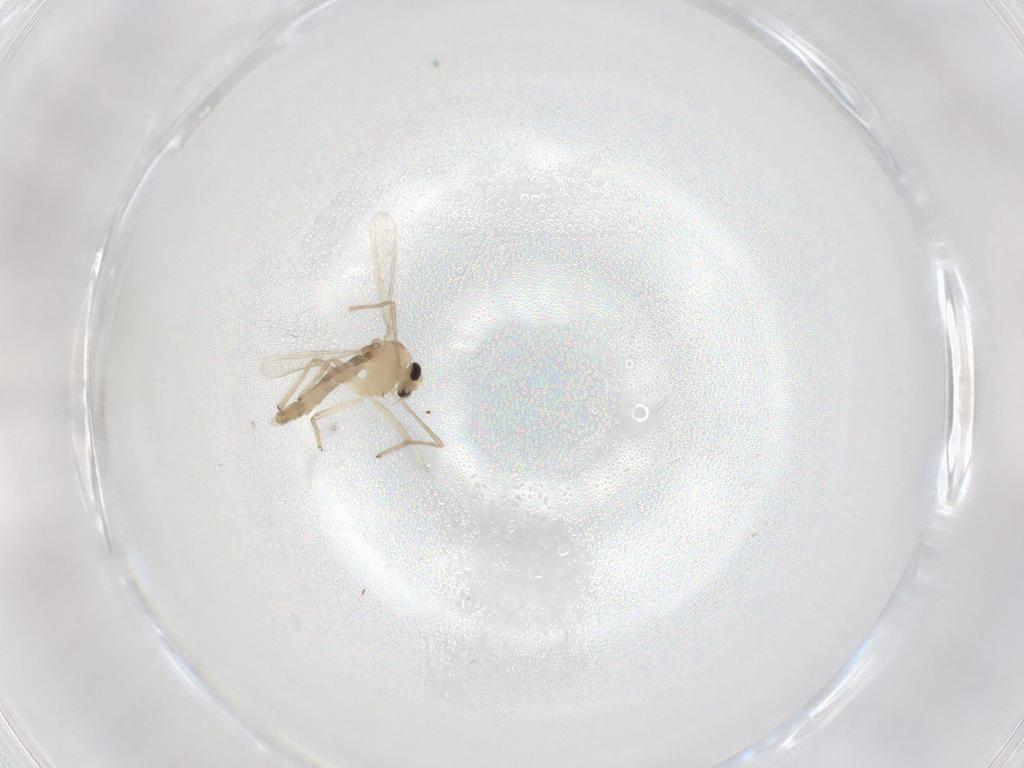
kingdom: Animalia
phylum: Arthropoda
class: Insecta
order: Diptera
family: Chironomidae
